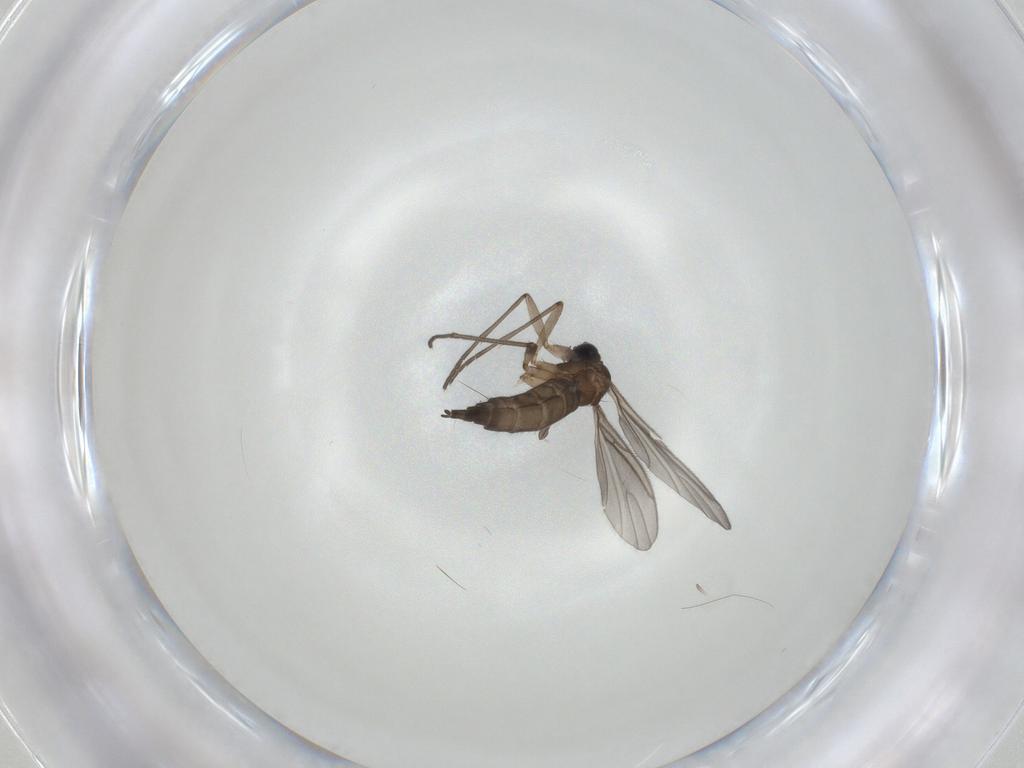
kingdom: Animalia
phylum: Arthropoda
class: Insecta
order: Diptera
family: Sciaridae
